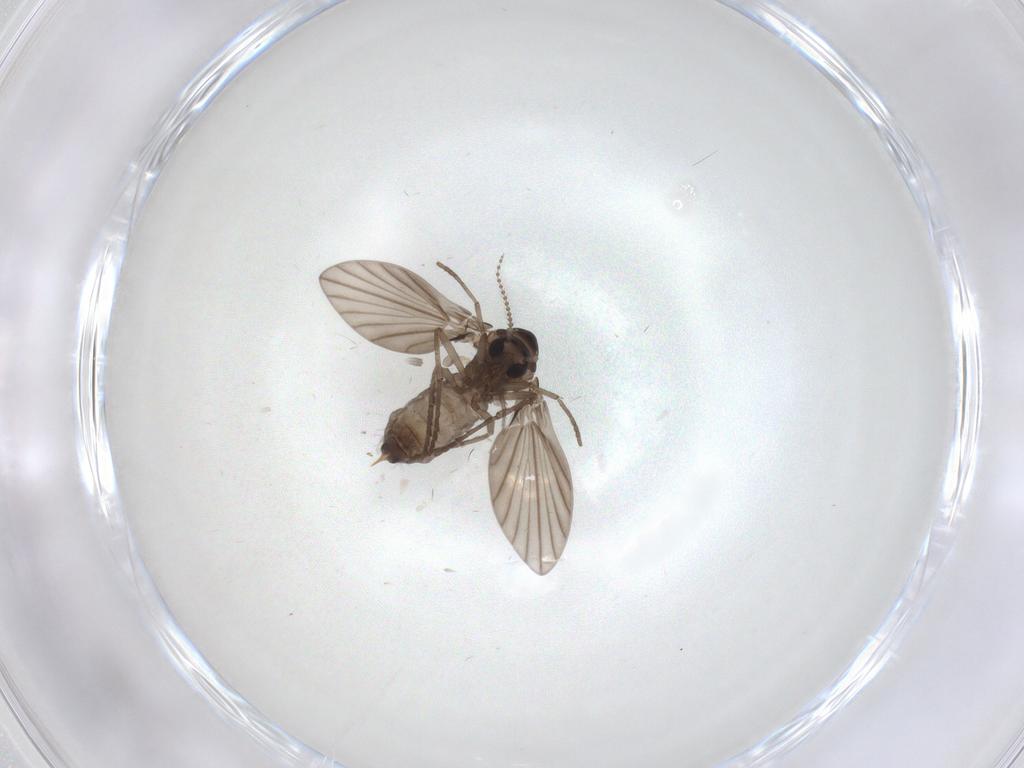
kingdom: Animalia
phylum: Arthropoda
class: Insecta
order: Diptera
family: Psychodidae
